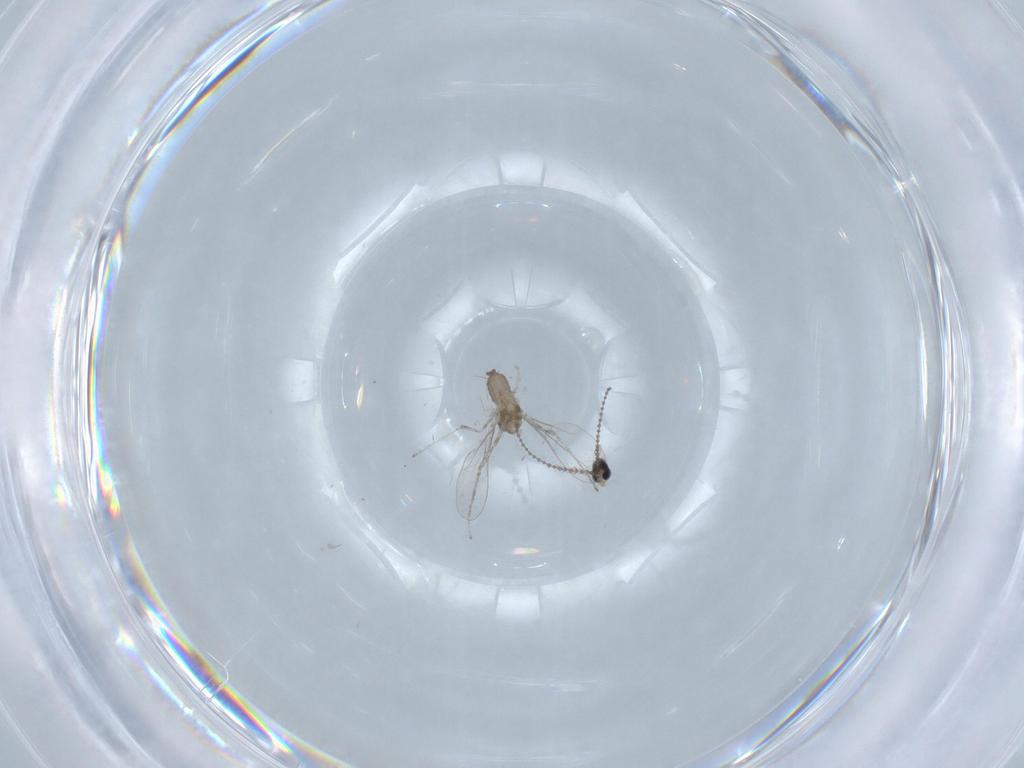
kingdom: Animalia
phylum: Arthropoda
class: Insecta
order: Diptera
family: Cecidomyiidae
